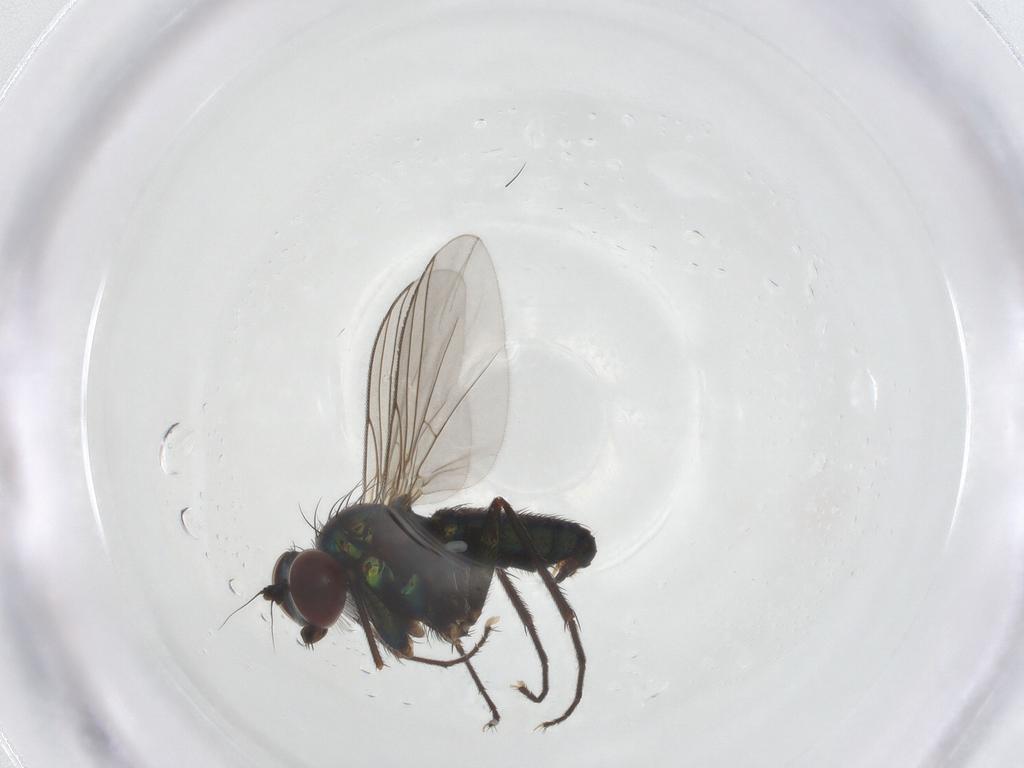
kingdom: Animalia
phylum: Arthropoda
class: Insecta
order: Diptera
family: Dolichopodidae
